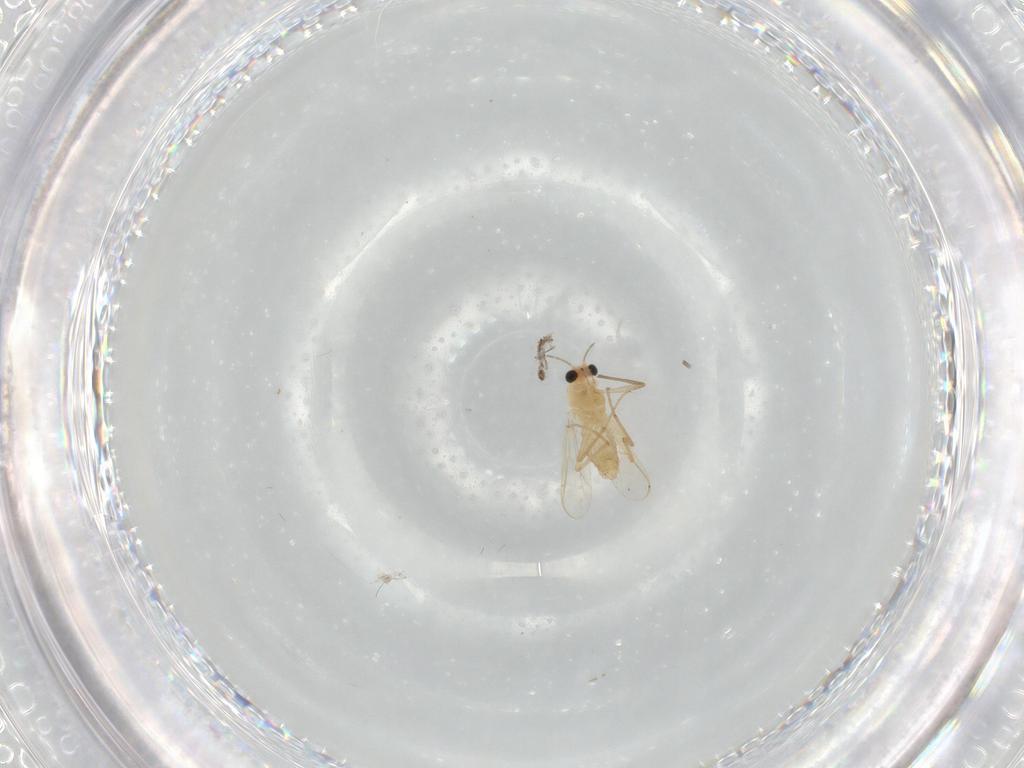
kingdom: Animalia
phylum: Arthropoda
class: Insecta
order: Diptera
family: Chironomidae
